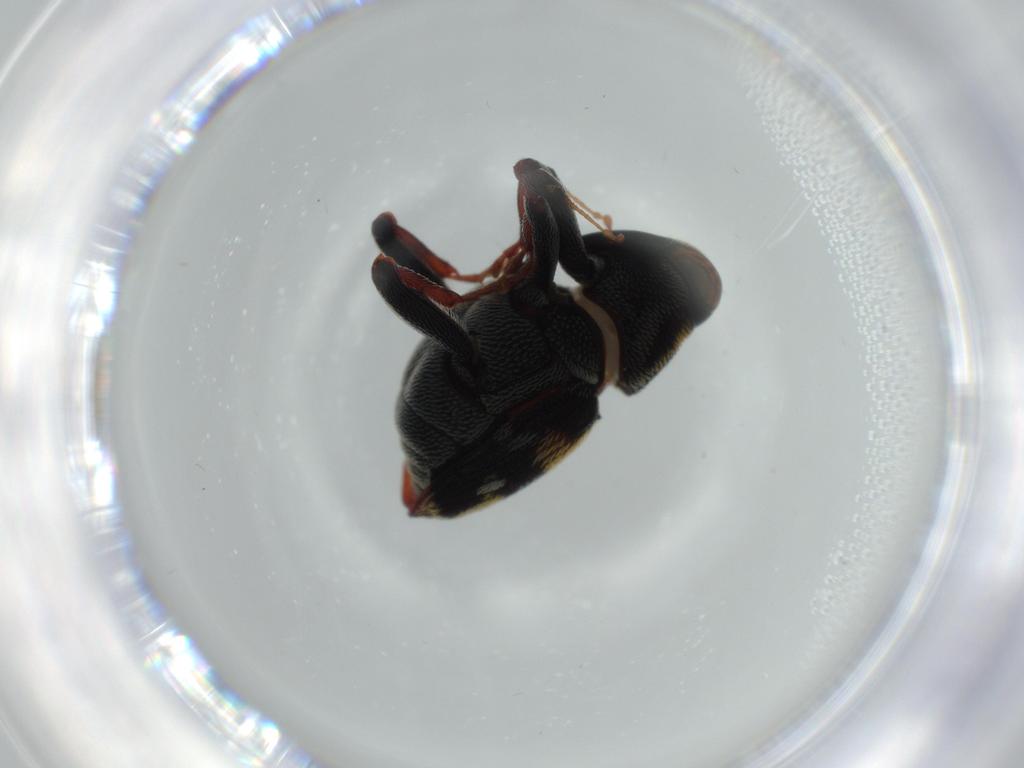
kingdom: Animalia
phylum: Arthropoda
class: Insecta
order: Coleoptera
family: Curculionidae
